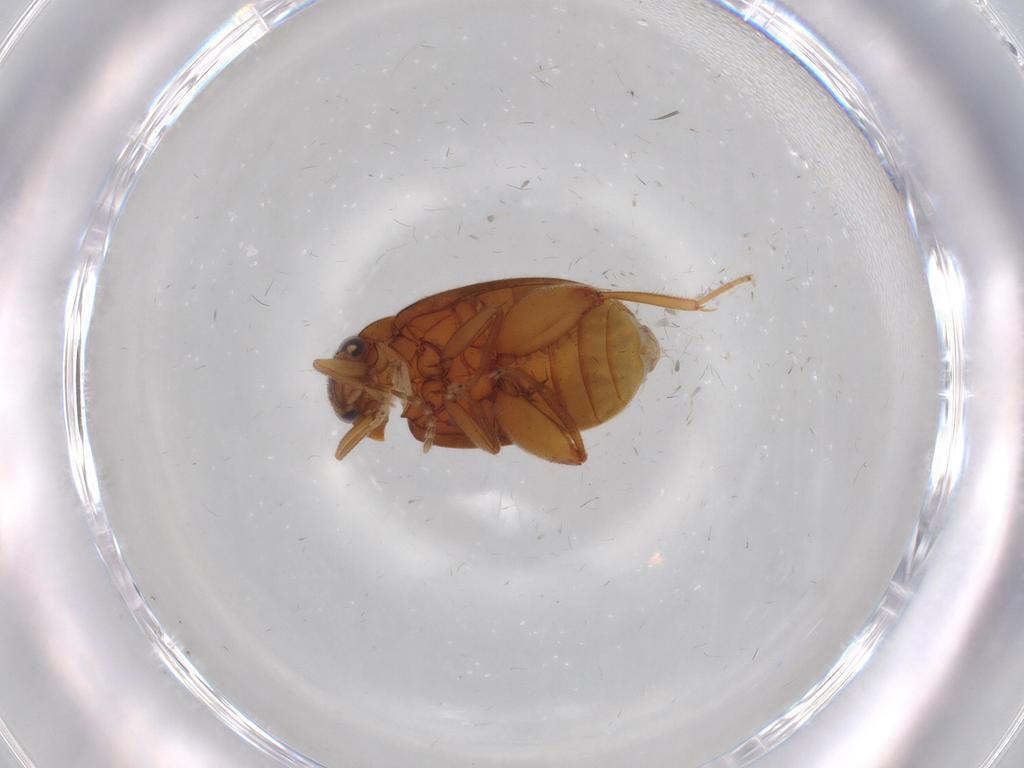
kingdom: Animalia
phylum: Arthropoda
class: Insecta
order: Coleoptera
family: Scirtidae
